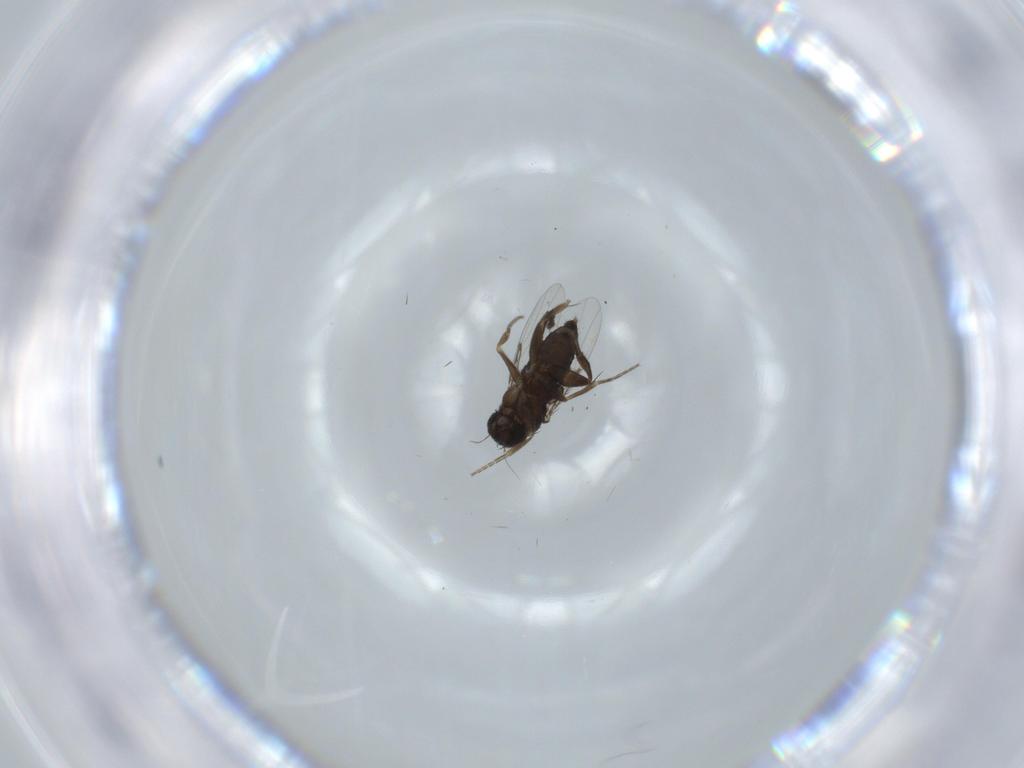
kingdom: Animalia
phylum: Arthropoda
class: Insecta
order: Diptera
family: Phoridae
